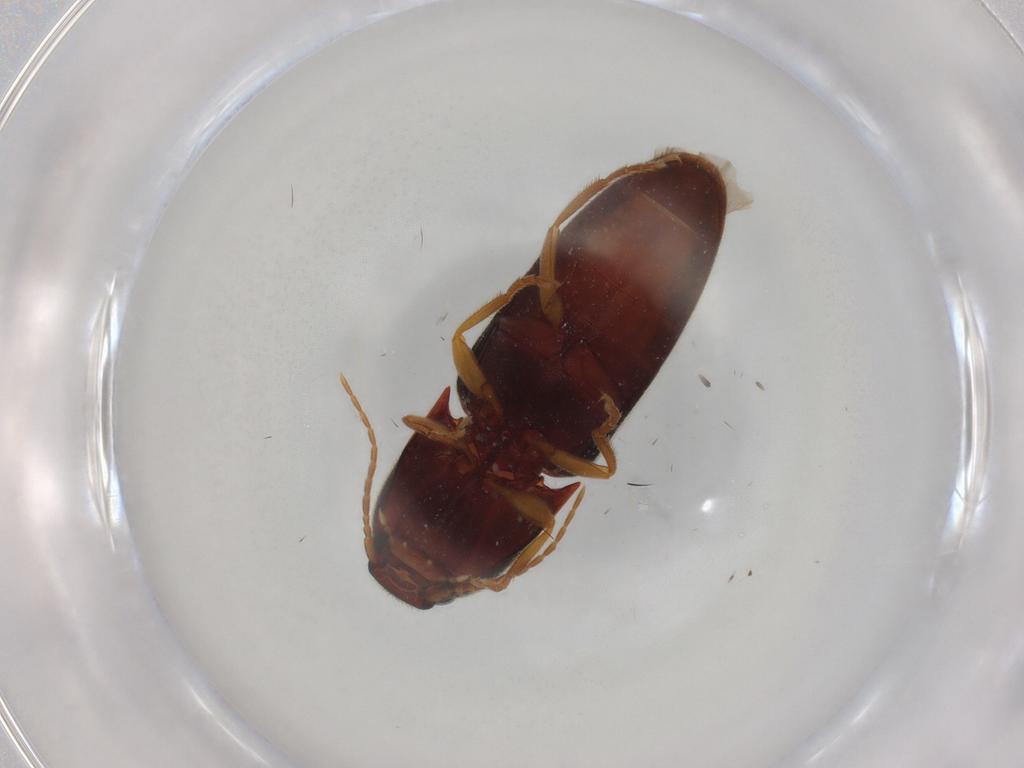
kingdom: Animalia
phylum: Arthropoda
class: Insecta
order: Coleoptera
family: Elateridae
